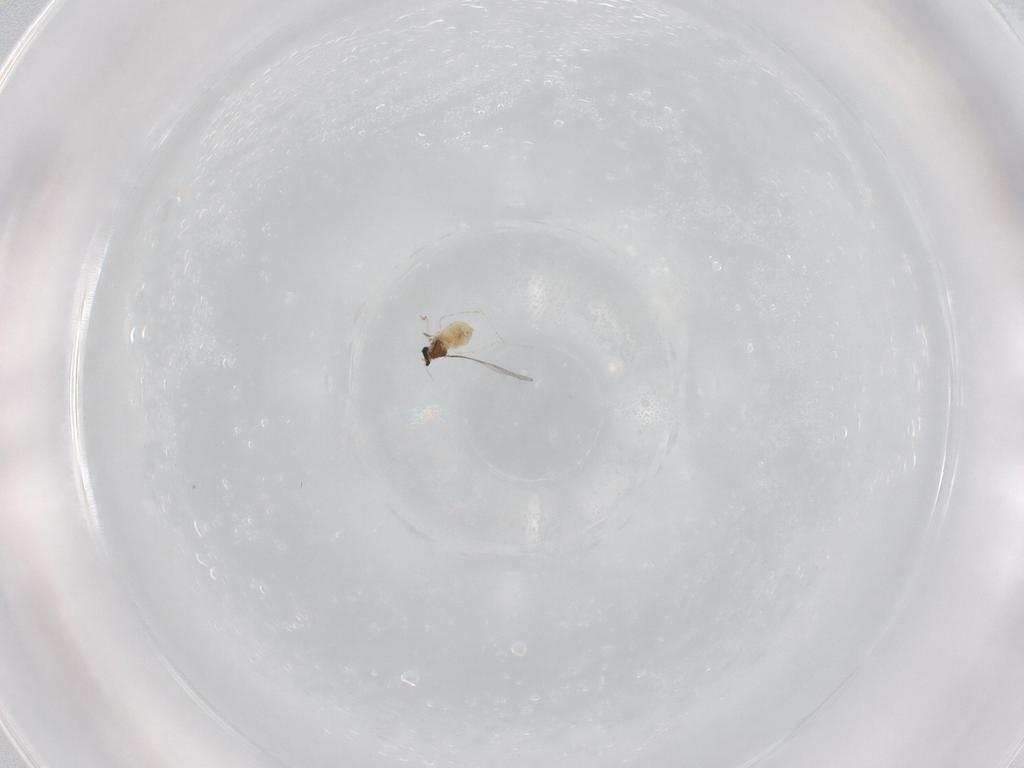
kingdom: Animalia
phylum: Arthropoda
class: Insecta
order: Diptera
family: Cecidomyiidae
